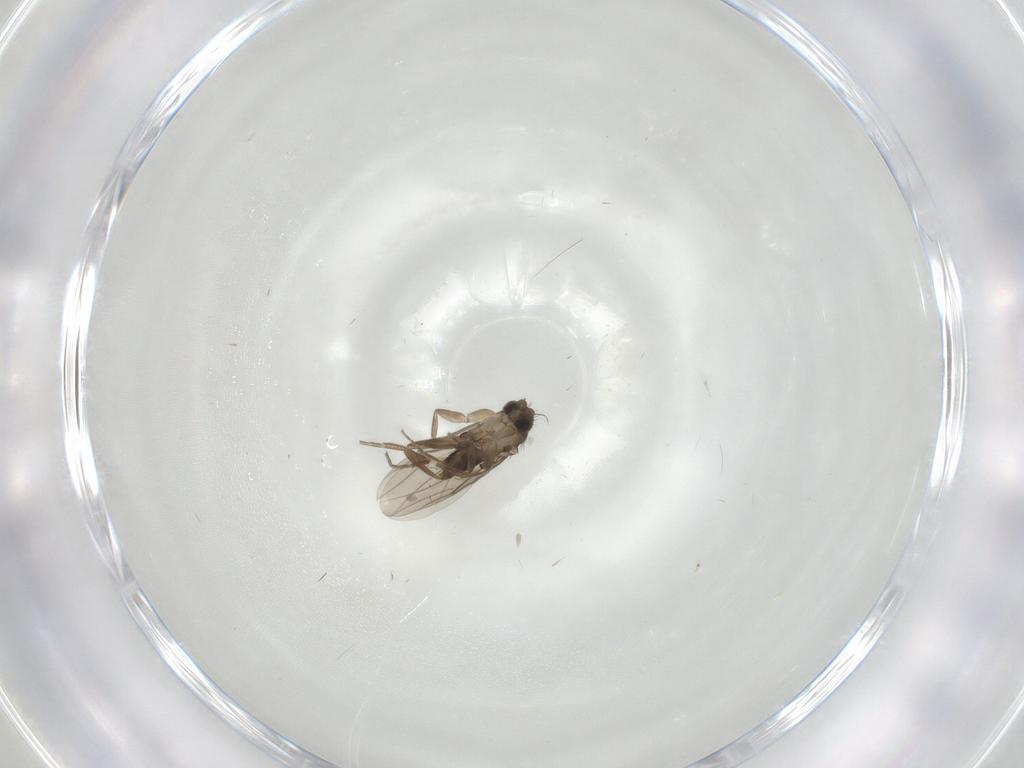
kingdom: Animalia
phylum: Arthropoda
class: Insecta
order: Diptera
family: Phoridae
